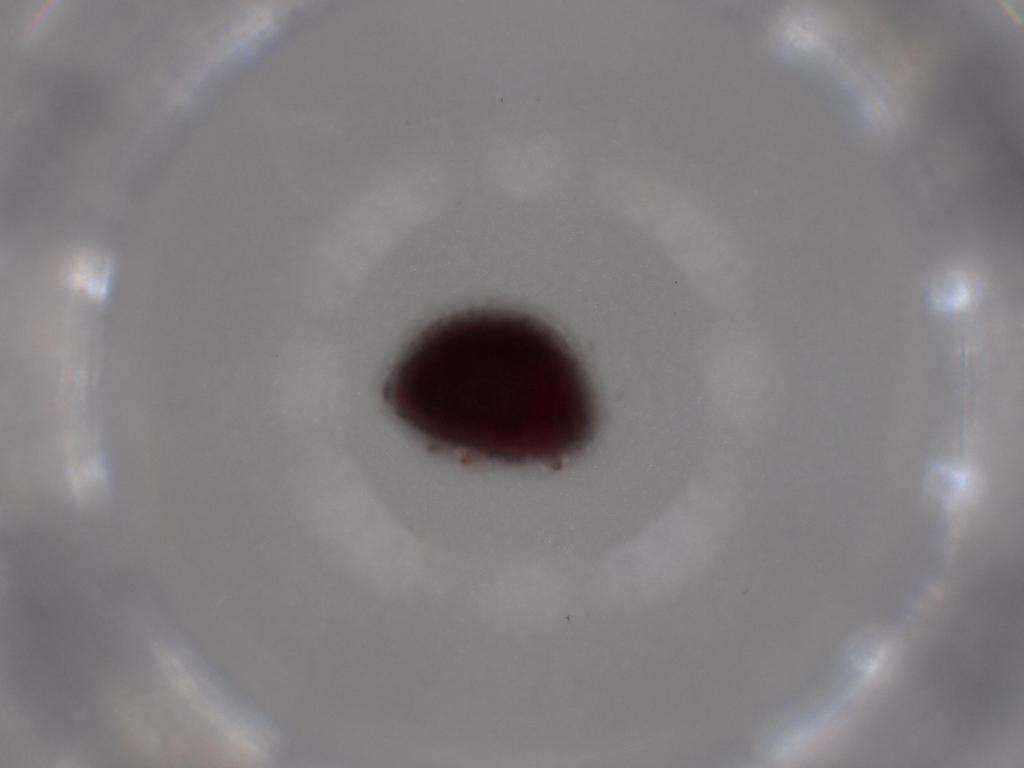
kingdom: Animalia
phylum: Arthropoda
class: Insecta
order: Coleoptera
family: Coccinellidae
